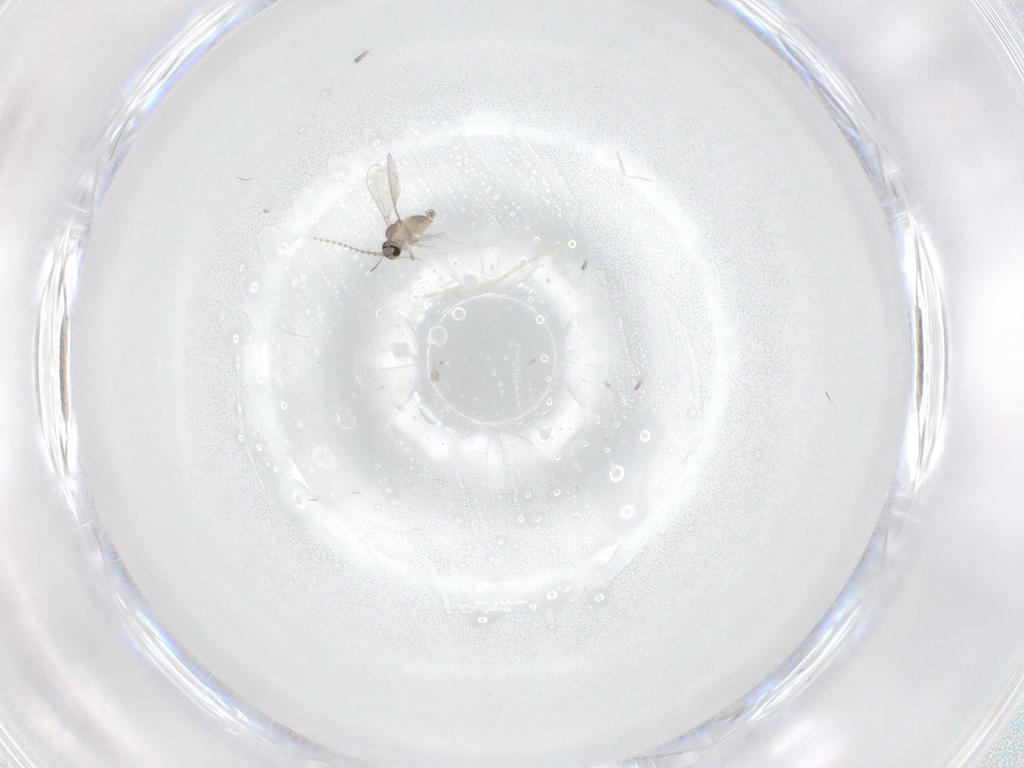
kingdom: Animalia
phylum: Arthropoda
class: Insecta
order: Diptera
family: Cecidomyiidae
